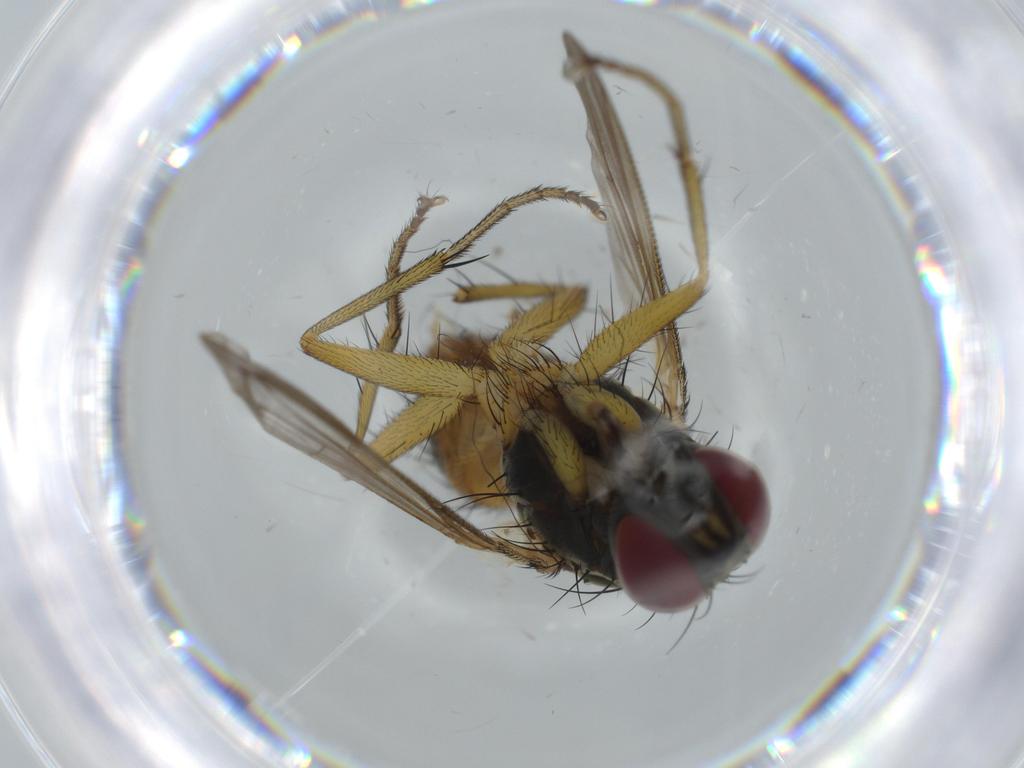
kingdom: Animalia
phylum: Arthropoda
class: Insecta
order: Diptera
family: Muscidae
